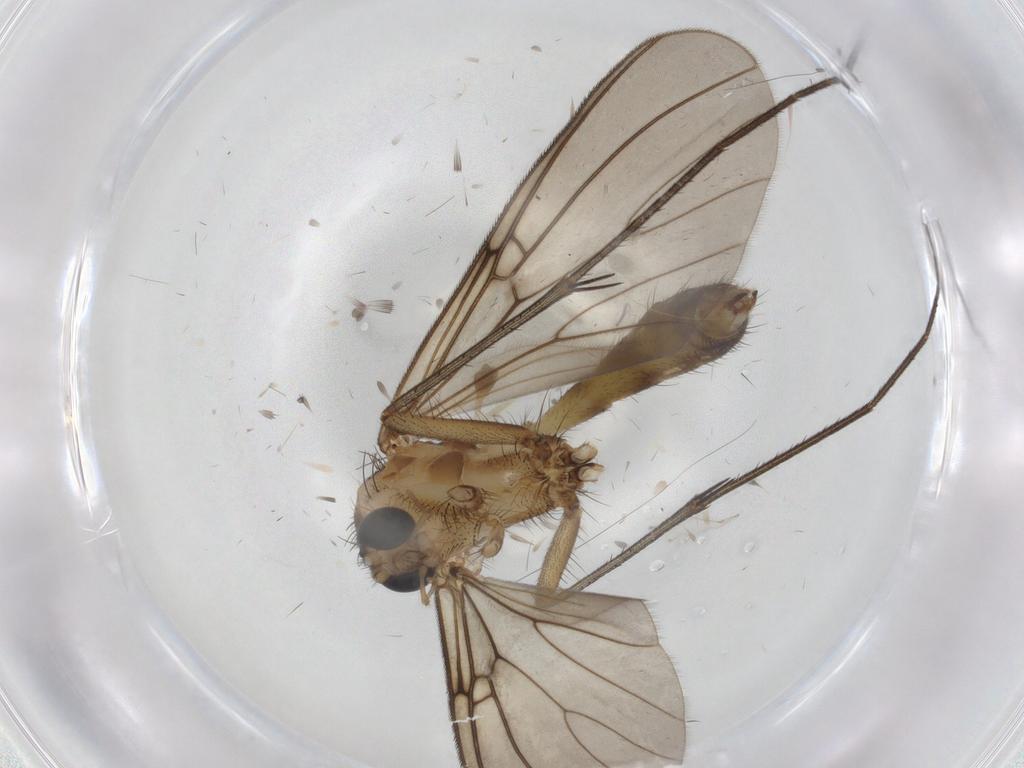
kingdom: Animalia
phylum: Arthropoda
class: Insecta
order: Diptera
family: Mycetophilidae
